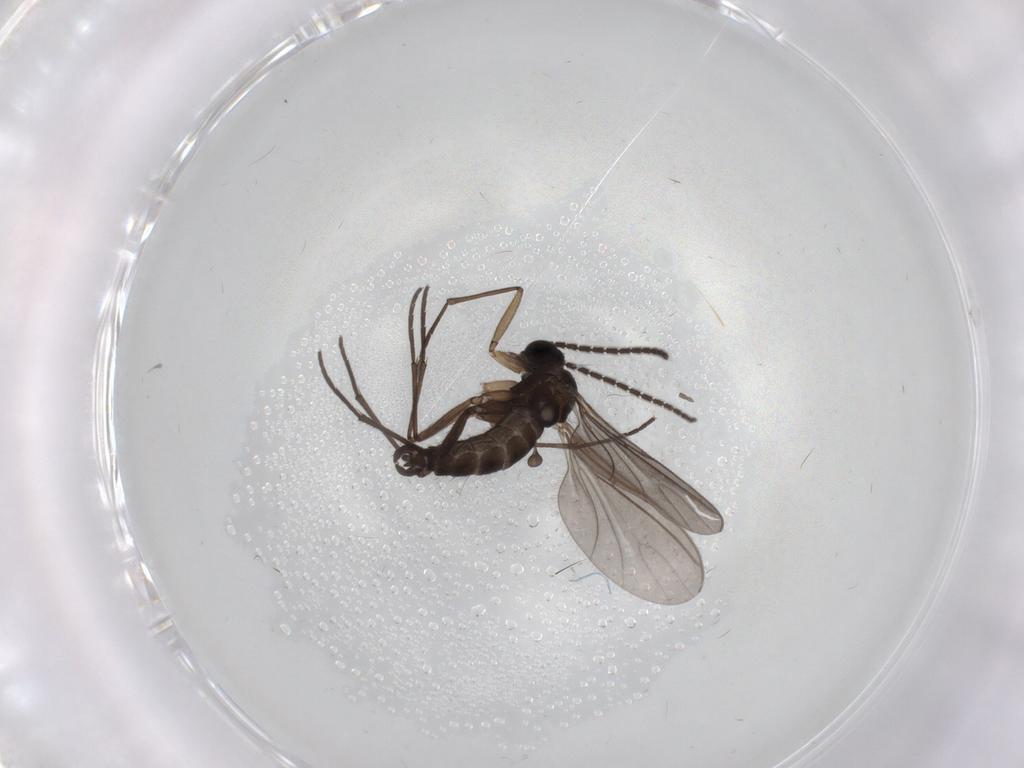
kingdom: Animalia
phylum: Arthropoda
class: Insecta
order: Diptera
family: Sciaridae
